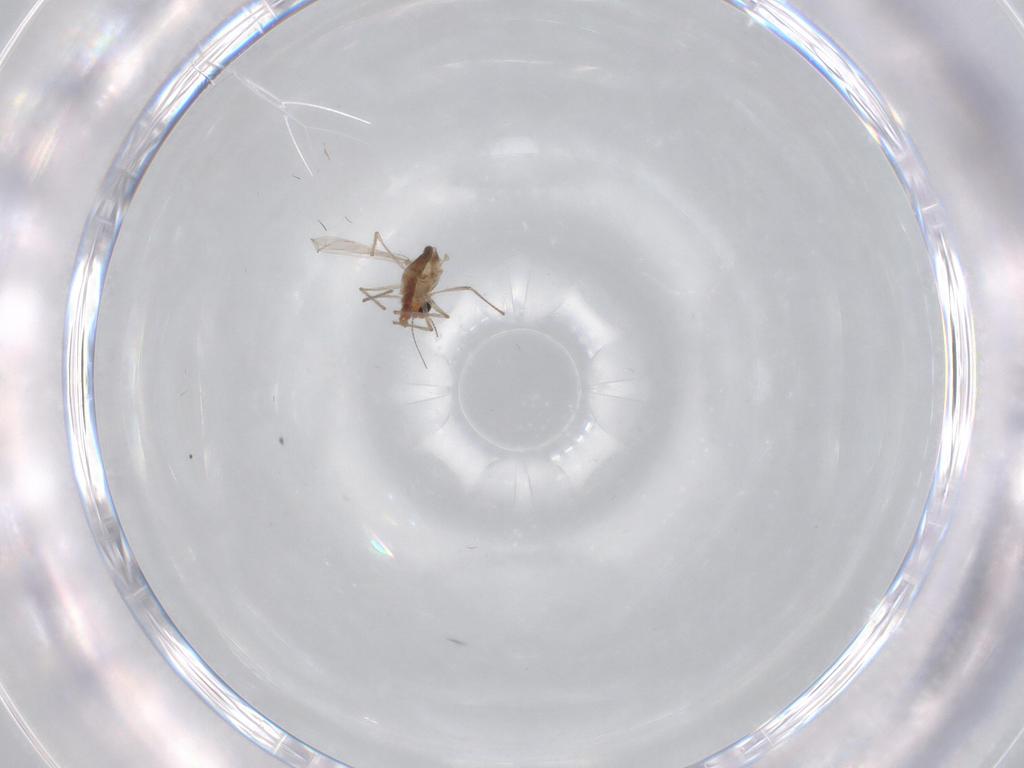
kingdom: Animalia
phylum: Arthropoda
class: Insecta
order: Diptera
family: Chironomidae
